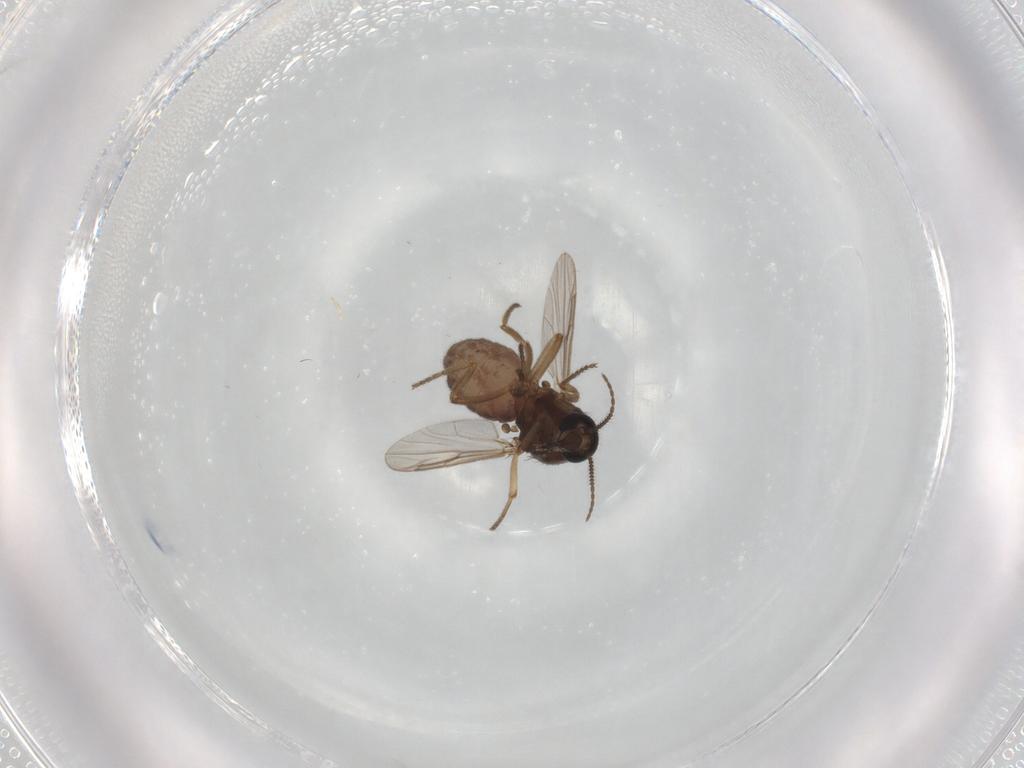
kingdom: Animalia
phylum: Arthropoda
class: Insecta
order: Diptera
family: Ceratopogonidae
